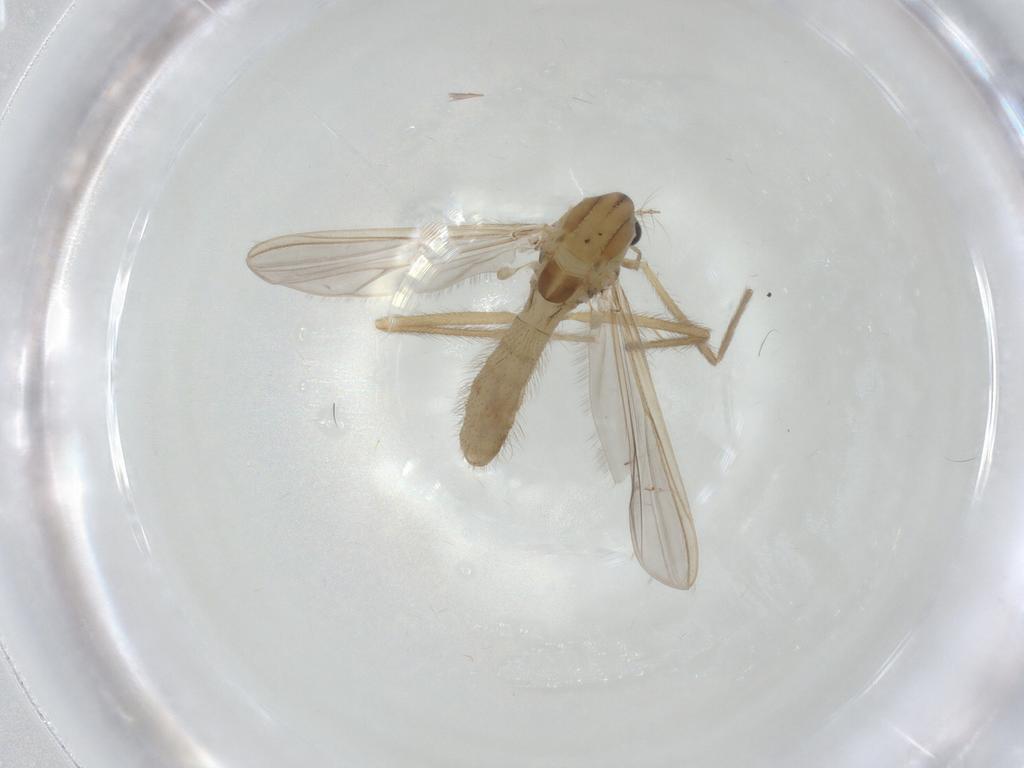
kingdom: Animalia
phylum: Arthropoda
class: Insecta
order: Diptera
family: Chironomidae
